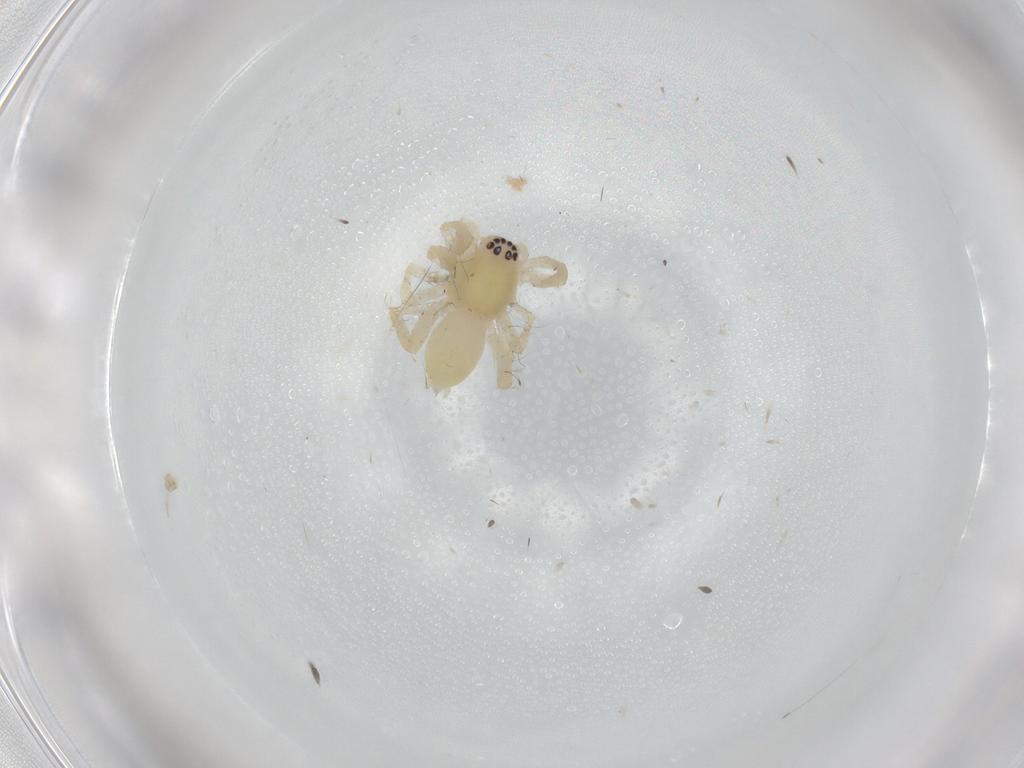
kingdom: Animalia
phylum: Arthropoda
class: Arachnida
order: Araneae
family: Anyphaenidae
